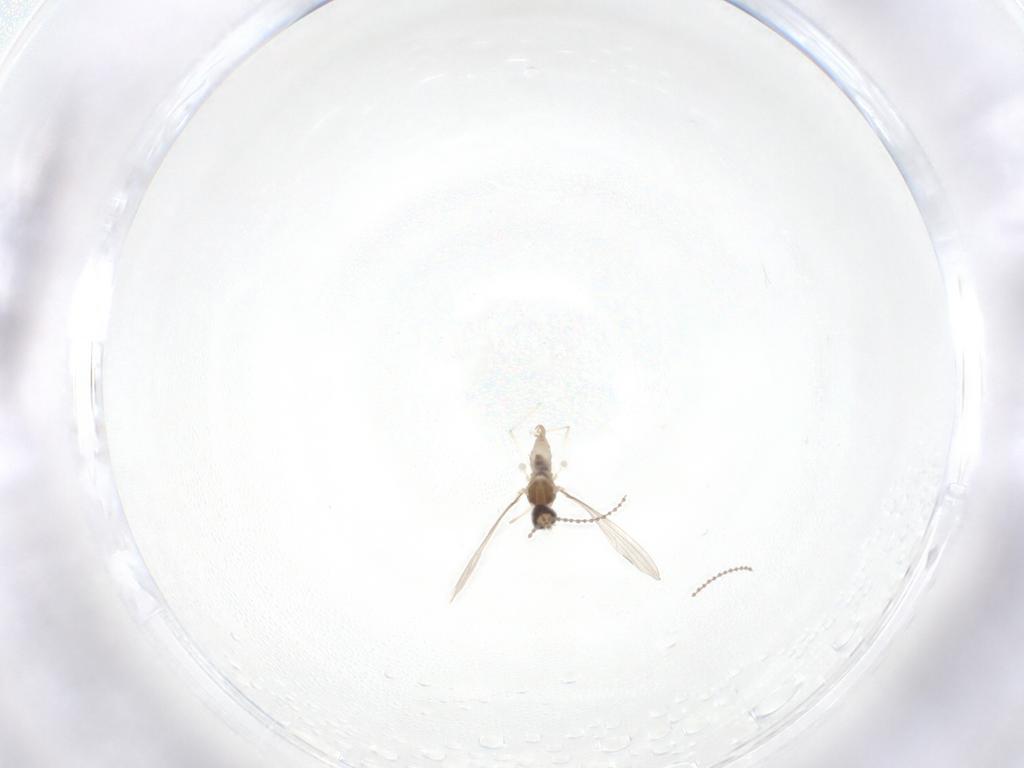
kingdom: Animalia
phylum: Arthropoda
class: Insecta
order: Diptera
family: Cecidomyiidae
